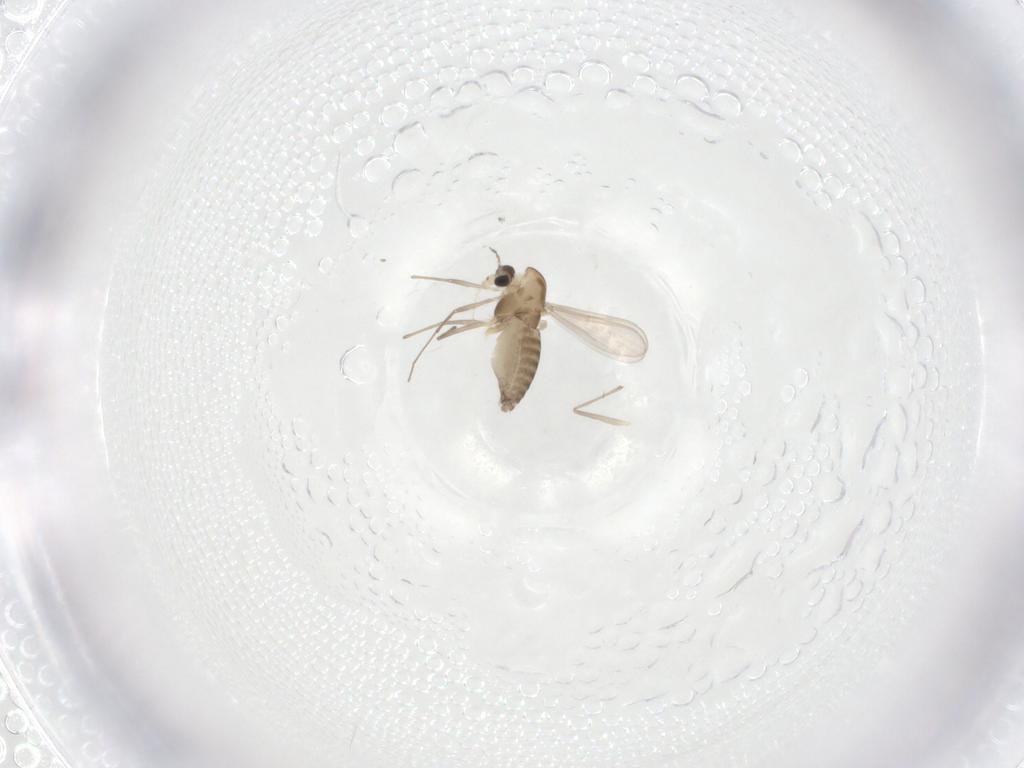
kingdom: Animalia
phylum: Arthropoda
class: Insecta
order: Diptera
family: Chironomidae
